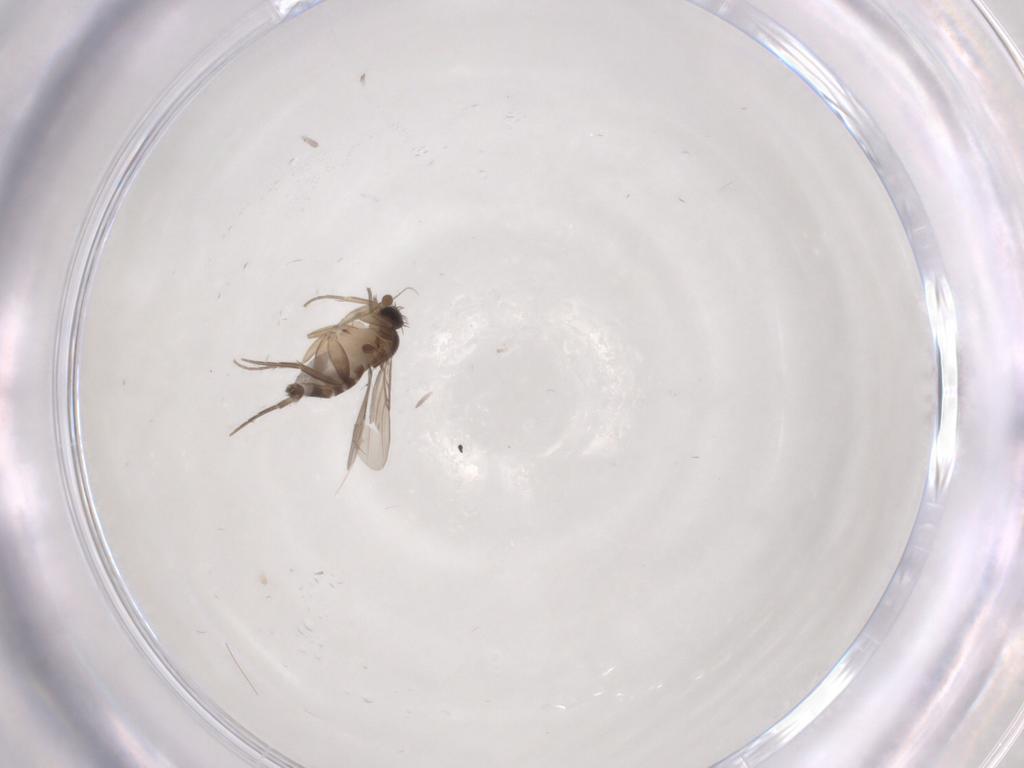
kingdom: Animalia
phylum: Arthropoda
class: Insecta
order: Diptera
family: Phoridae
